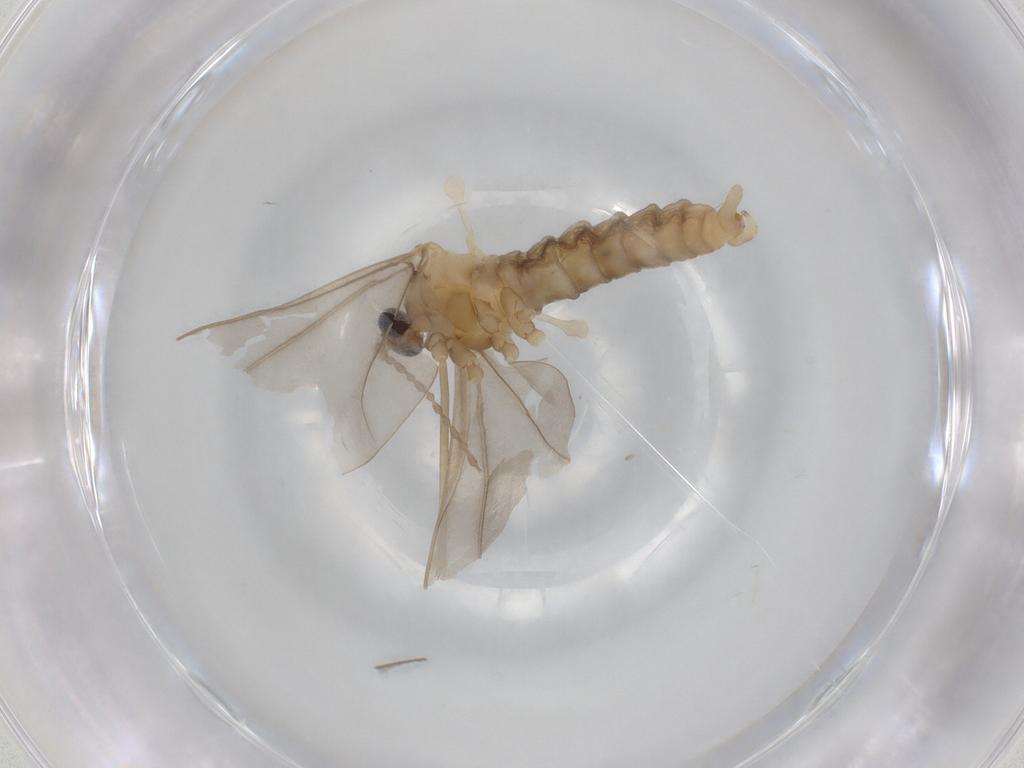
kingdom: Animalia
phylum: Arthropoda
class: Insecta
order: Diptera
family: Cecidomyiidae
